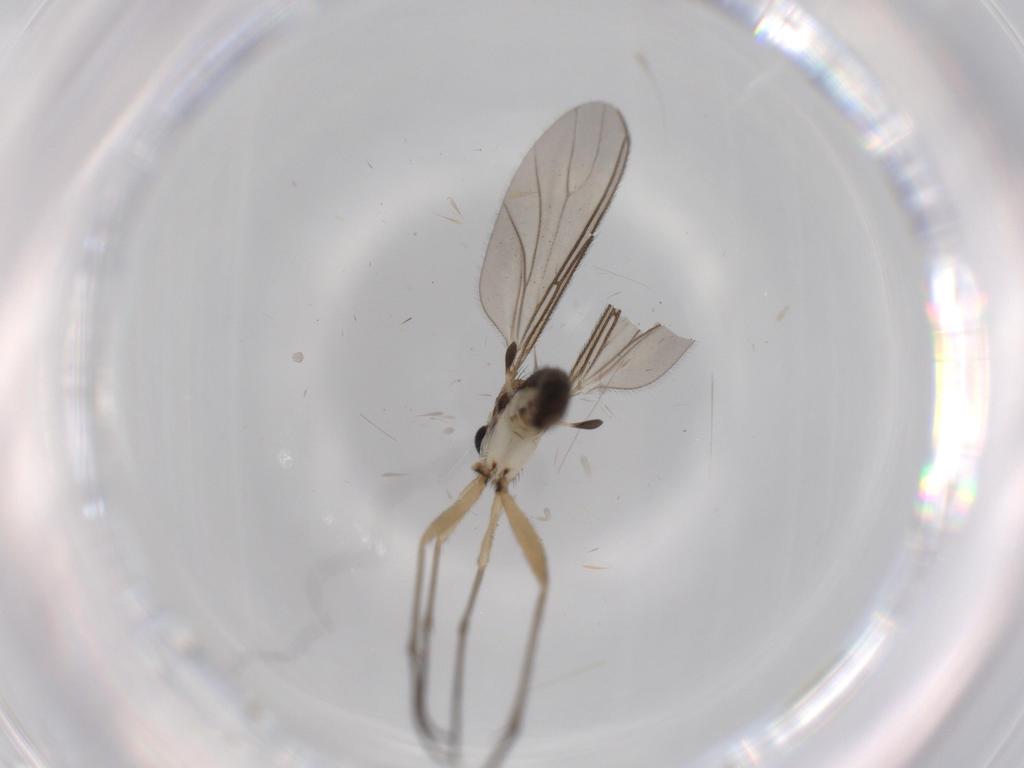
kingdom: Animalia
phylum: Arthropoda
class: Insecta
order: Diptera
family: Sciaridae
